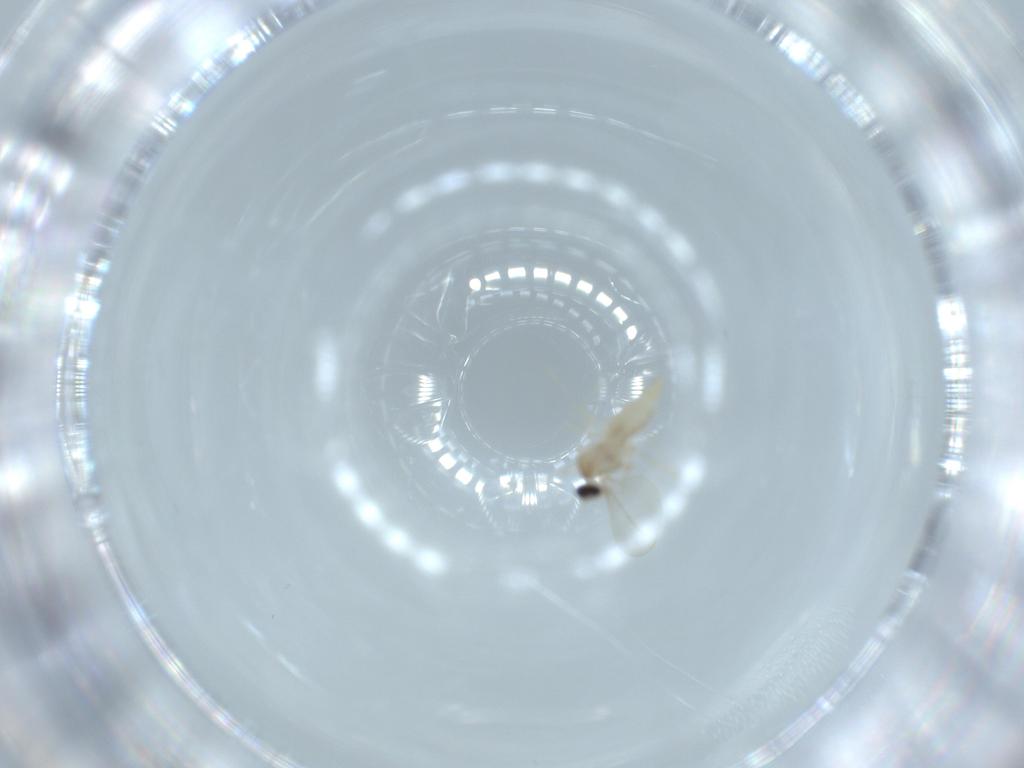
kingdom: Animalia
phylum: Arthropoda
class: Insecta
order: Diptera
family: Cecidomyiidae
